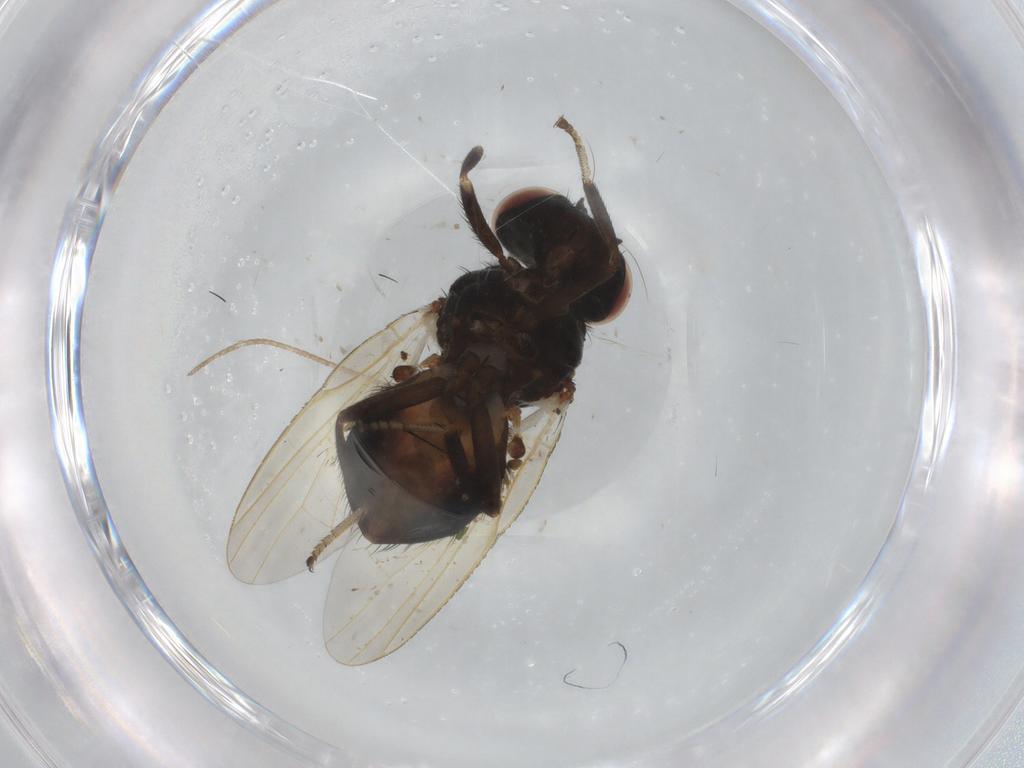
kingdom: Animalia
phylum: Arthropoda
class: Insecta
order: Diptera
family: Lonchaeidae
